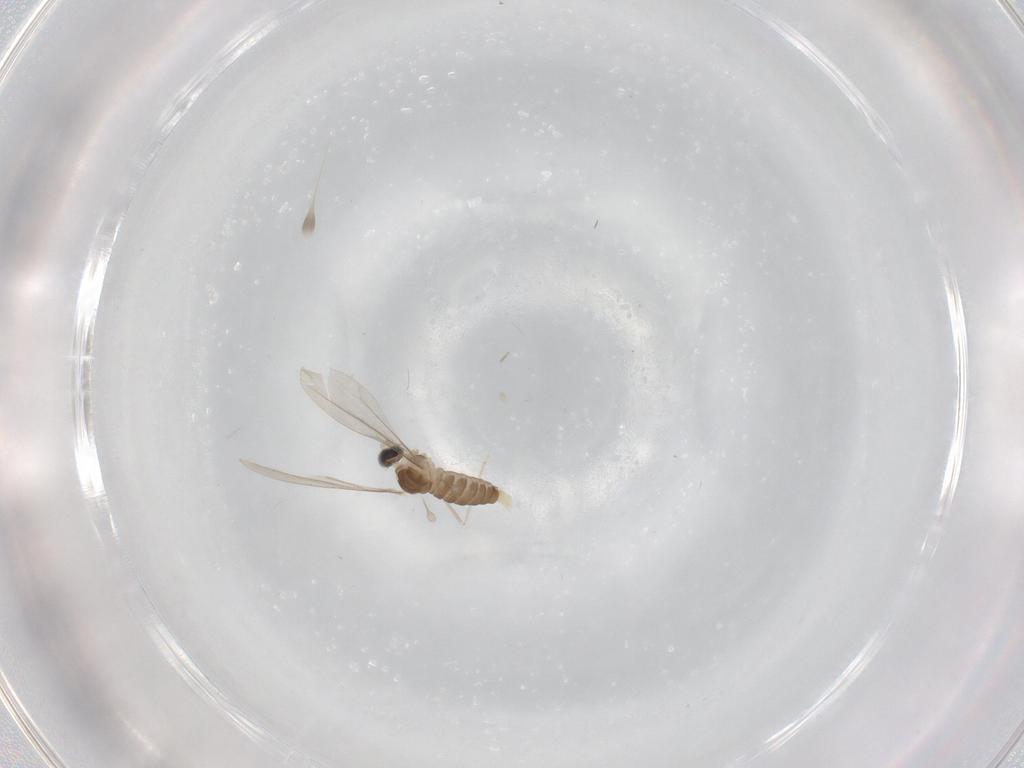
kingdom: Animalia
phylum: Arthropoda
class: Insecta
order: Diptera
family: Cecidomyiidae
